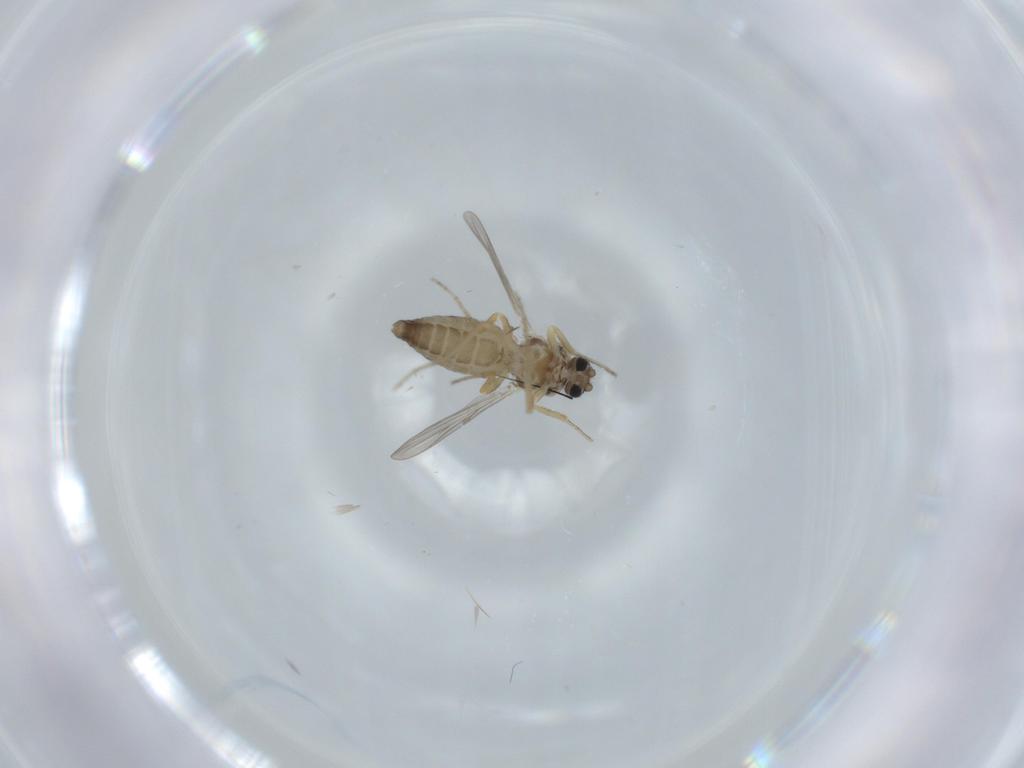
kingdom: Animalia
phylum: Arthropoda
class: Insecta
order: Diptera
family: Ceratopogonidae
